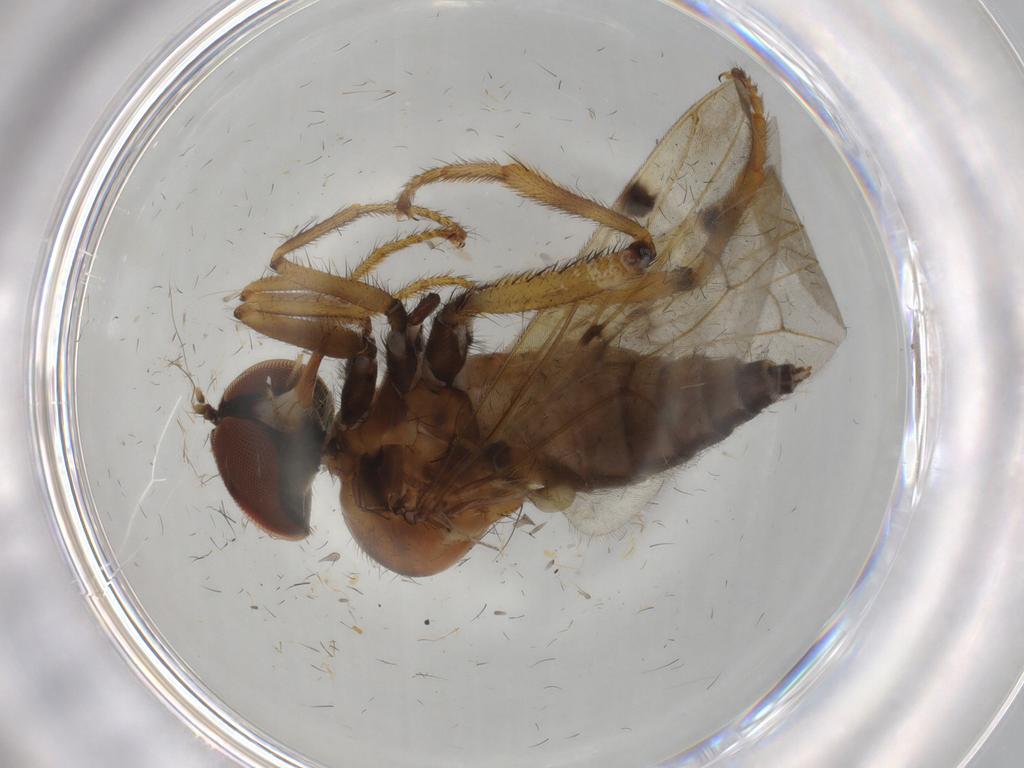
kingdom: Animalia
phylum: Arthropoda
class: Insecta
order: Diptera
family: Hybotidae
